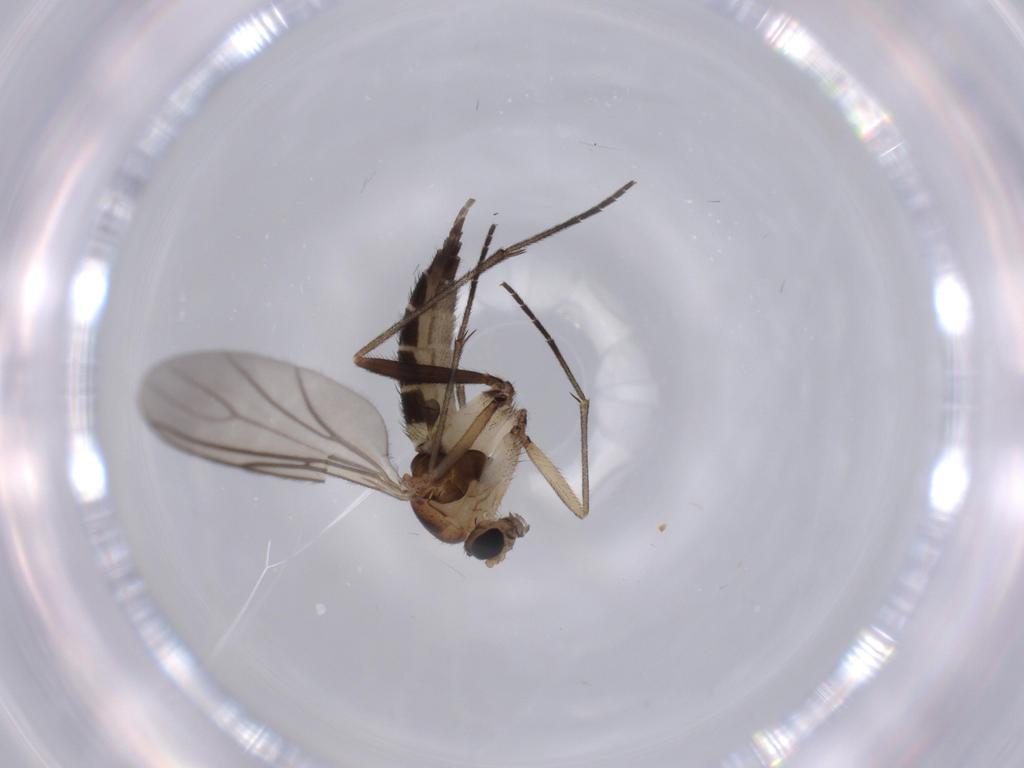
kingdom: Animalia
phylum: Arthropoda
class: Insecta
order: Diptera
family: Sciaridae
